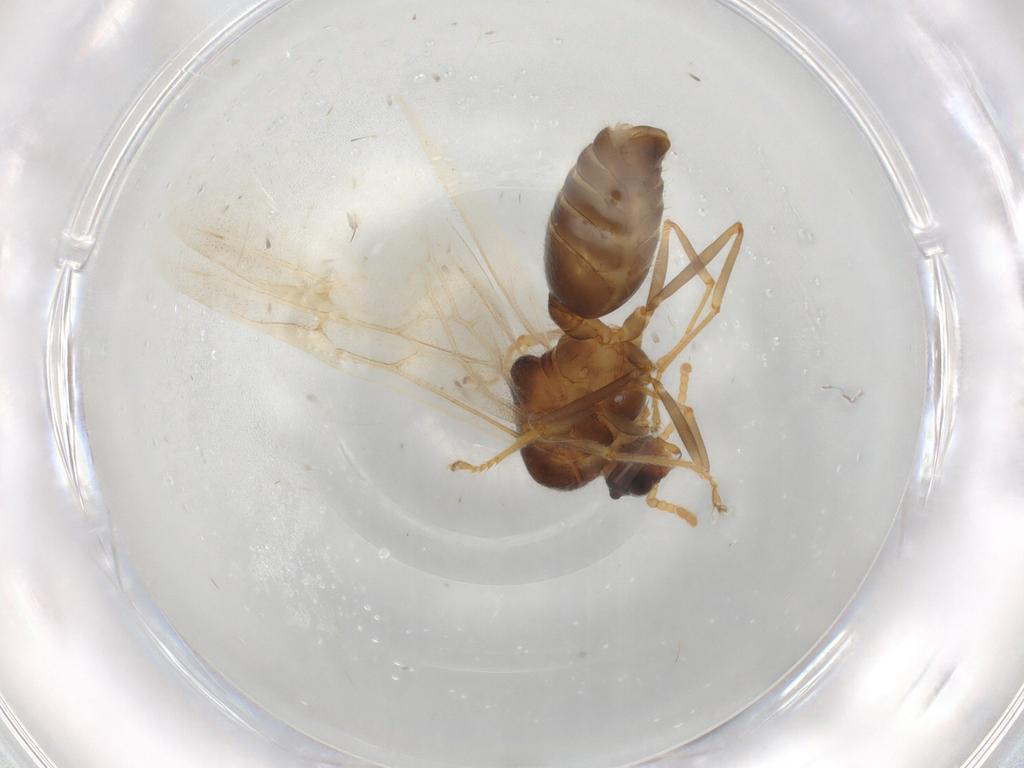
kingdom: Animalia
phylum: Arthropoda
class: Insecta
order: Hymenoptera
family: Formicidae
